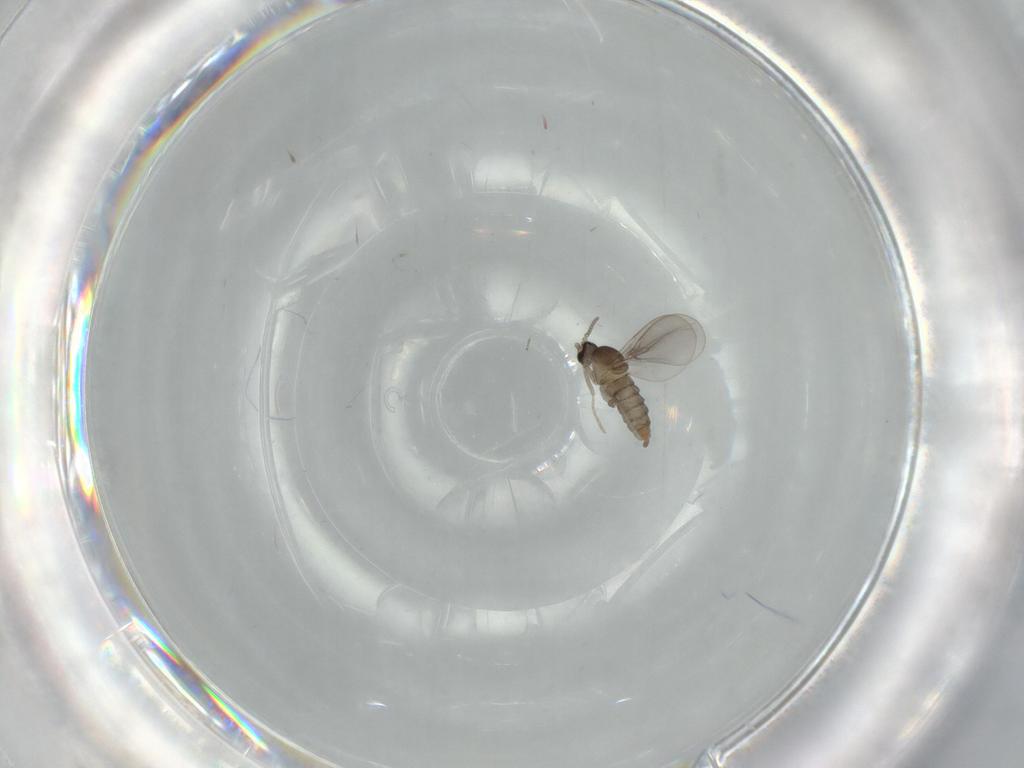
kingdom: Animalia
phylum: Arthropoda
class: Insecta
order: Diptera
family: Cecidomyiidae
